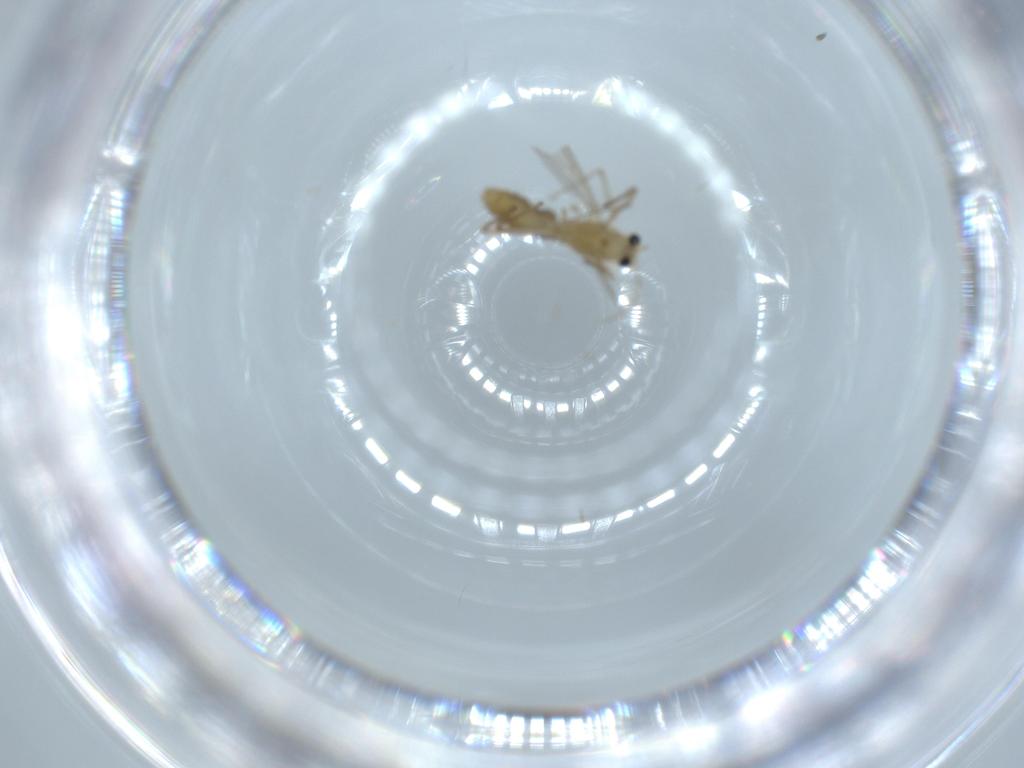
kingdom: Animalia
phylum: Arthropoda
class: Insecta
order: Diptera
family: Chironomidae
